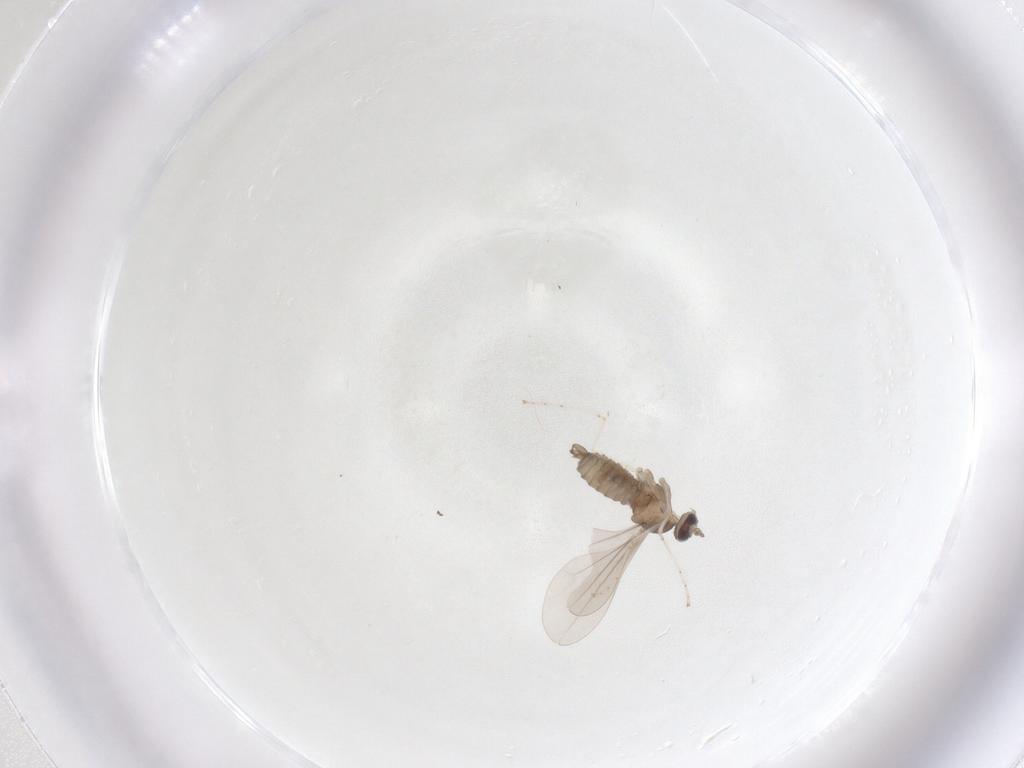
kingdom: Animalia
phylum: Arthropoda
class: Insecta
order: Diptera
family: Cecidomyiidae
